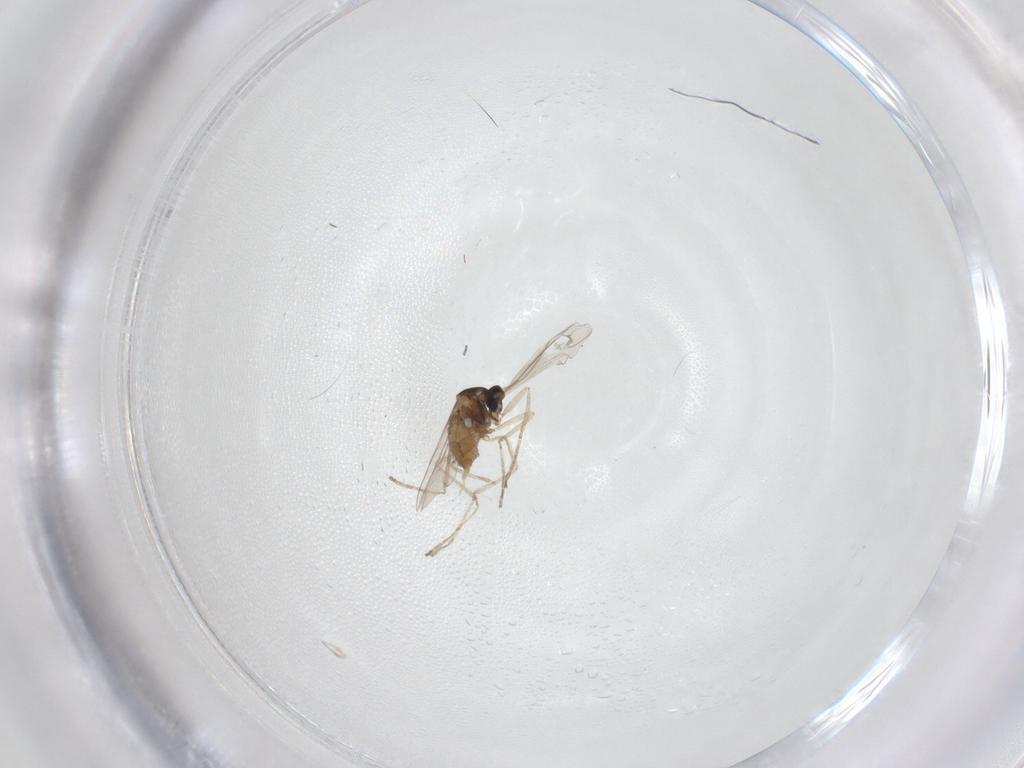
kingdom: Animalia
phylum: Arthropoda
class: Insecta
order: Diptera
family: Cecidomyiidae
